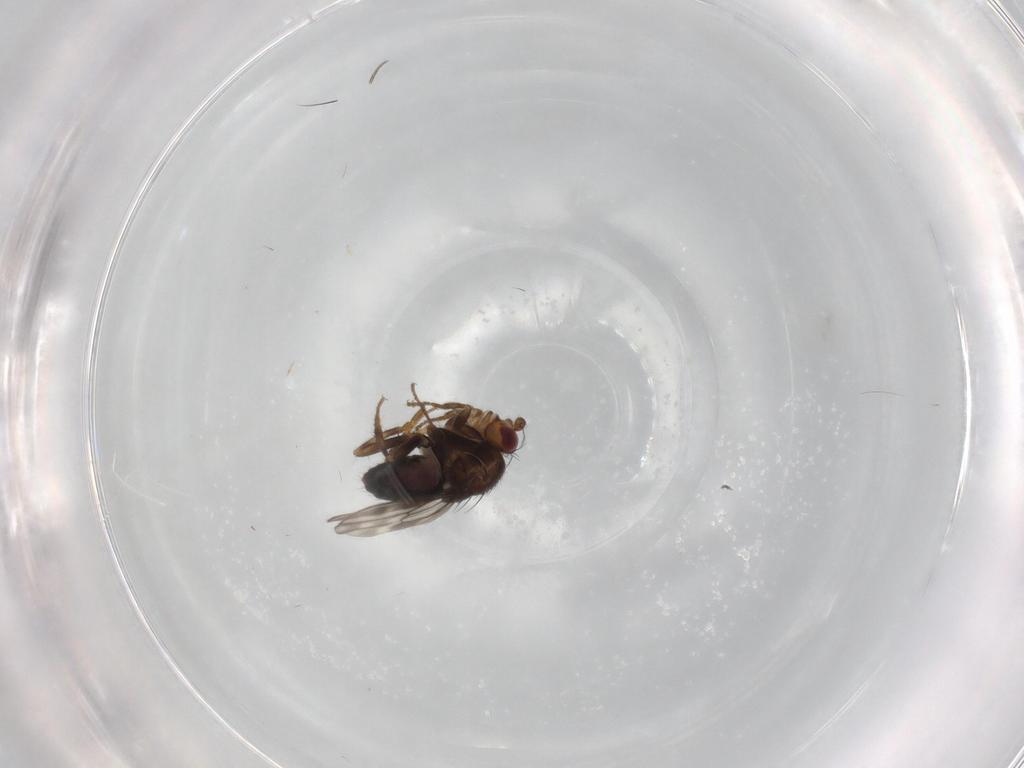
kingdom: Animalia
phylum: Arthropoda
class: Insecta
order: Diptera
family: Sphaeroceridae
